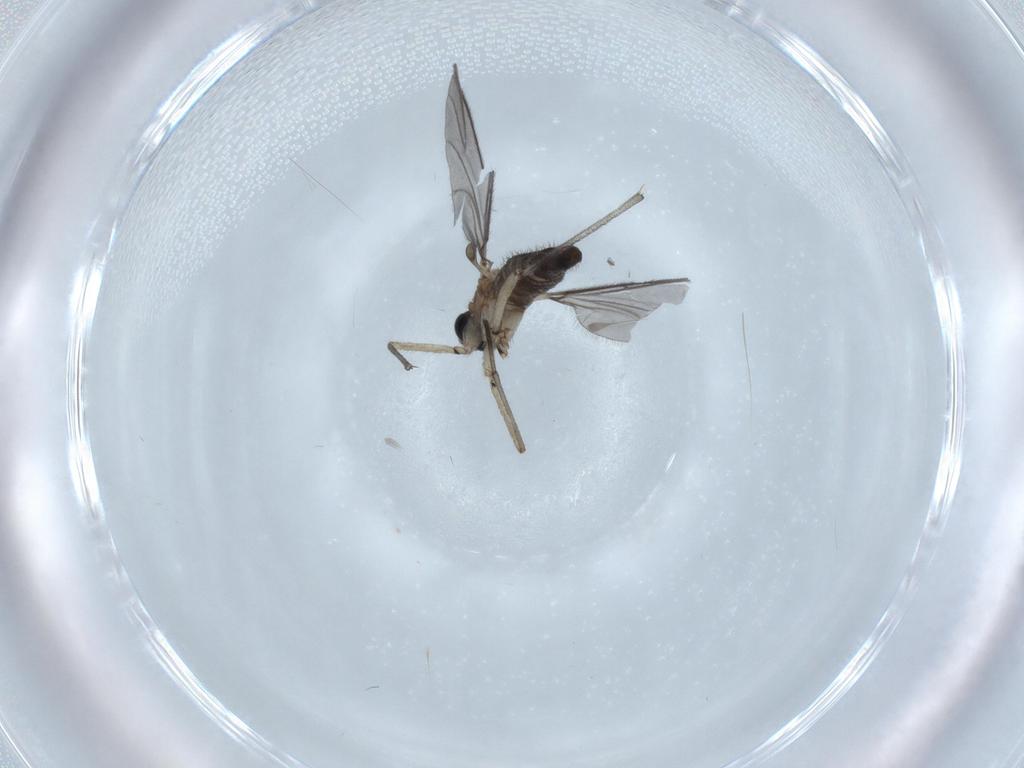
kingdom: Animalia
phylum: Arthropoda
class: Insecta
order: Diptera
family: Sciaridae
